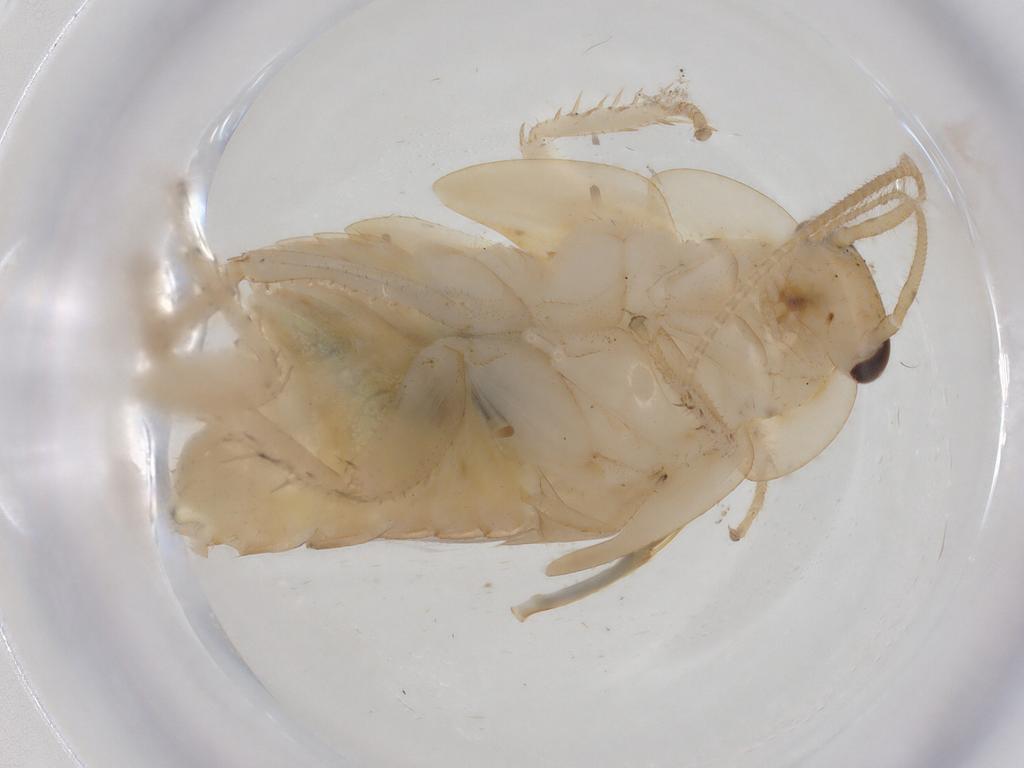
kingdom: Animalia
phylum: Arthropoda
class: Insecta
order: Blattodea
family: Ectobiidae
